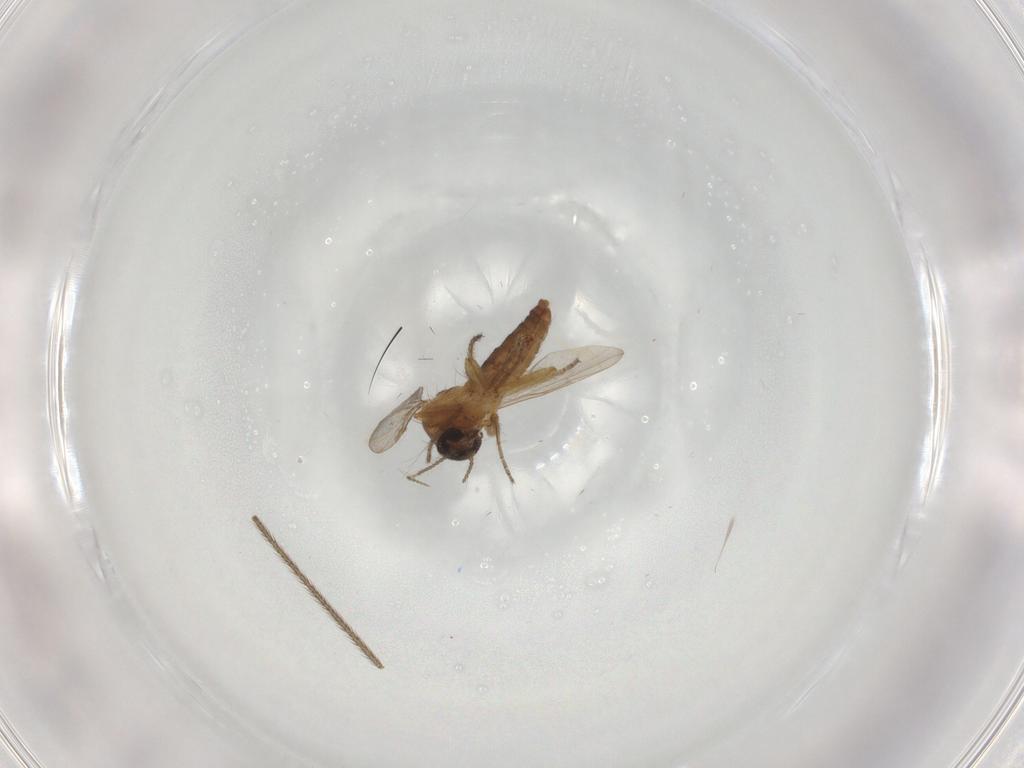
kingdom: Animalia
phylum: Arthropoda
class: Insecta
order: Diptera
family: Ceratopogonidae
